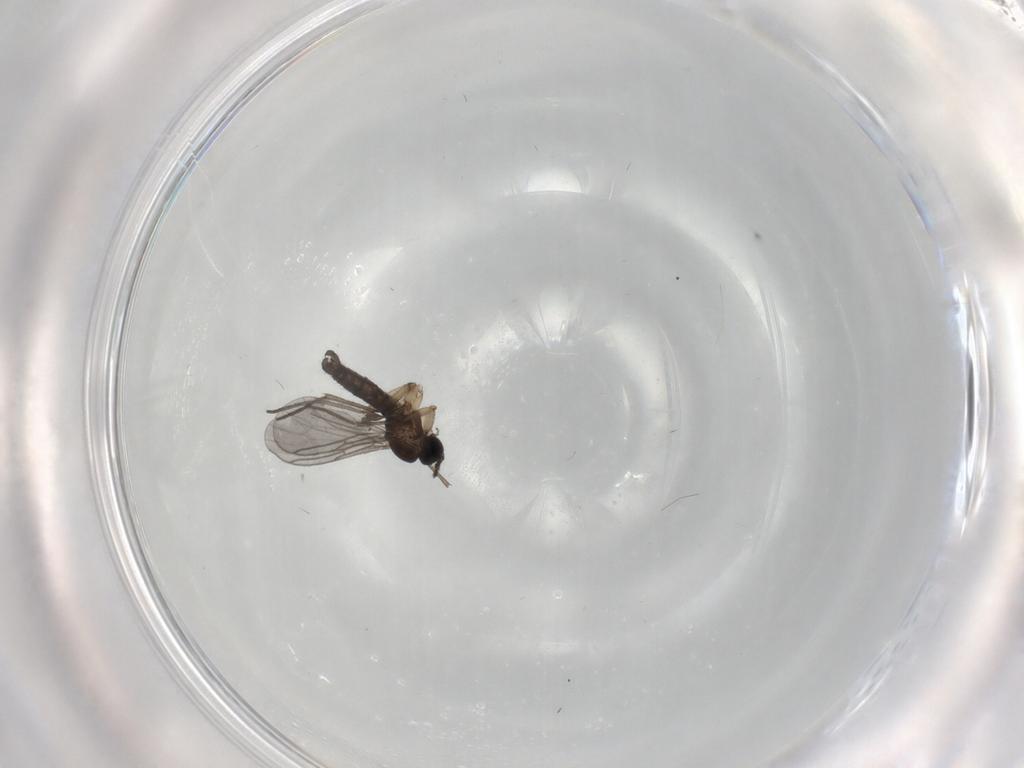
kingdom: Animalia
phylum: Arthropoda
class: Insecta
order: Diptera
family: Sciaridae
